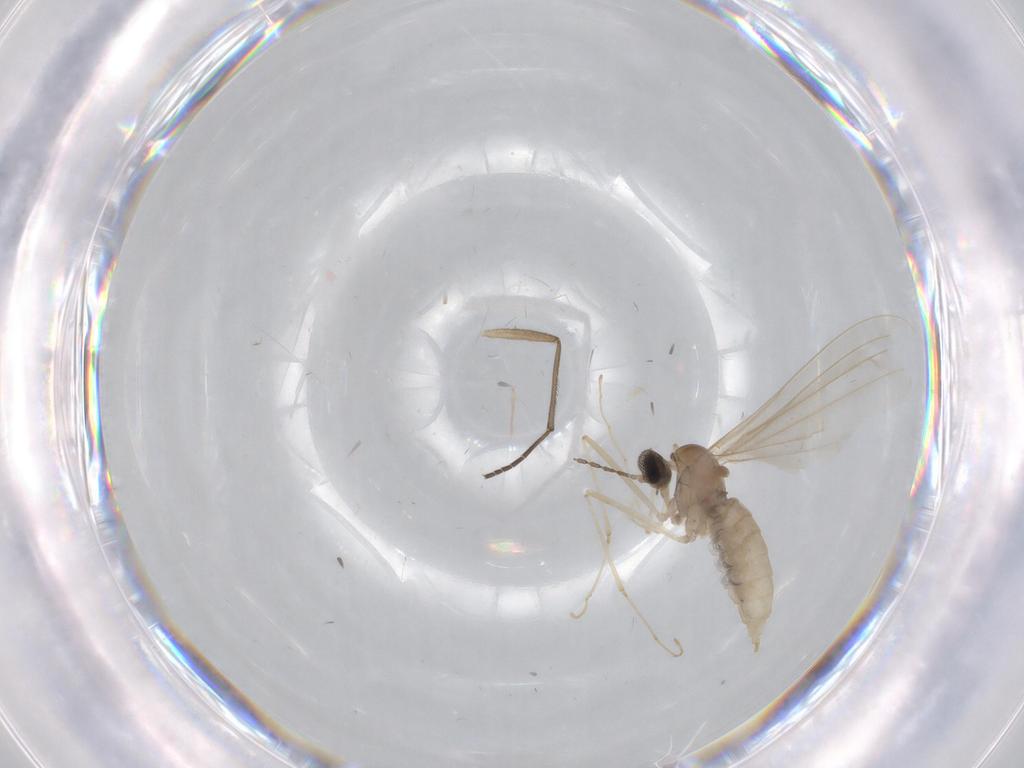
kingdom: Animalia
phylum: Arthropoda
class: Insecta
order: Diptera
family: Cecidomyiidae
